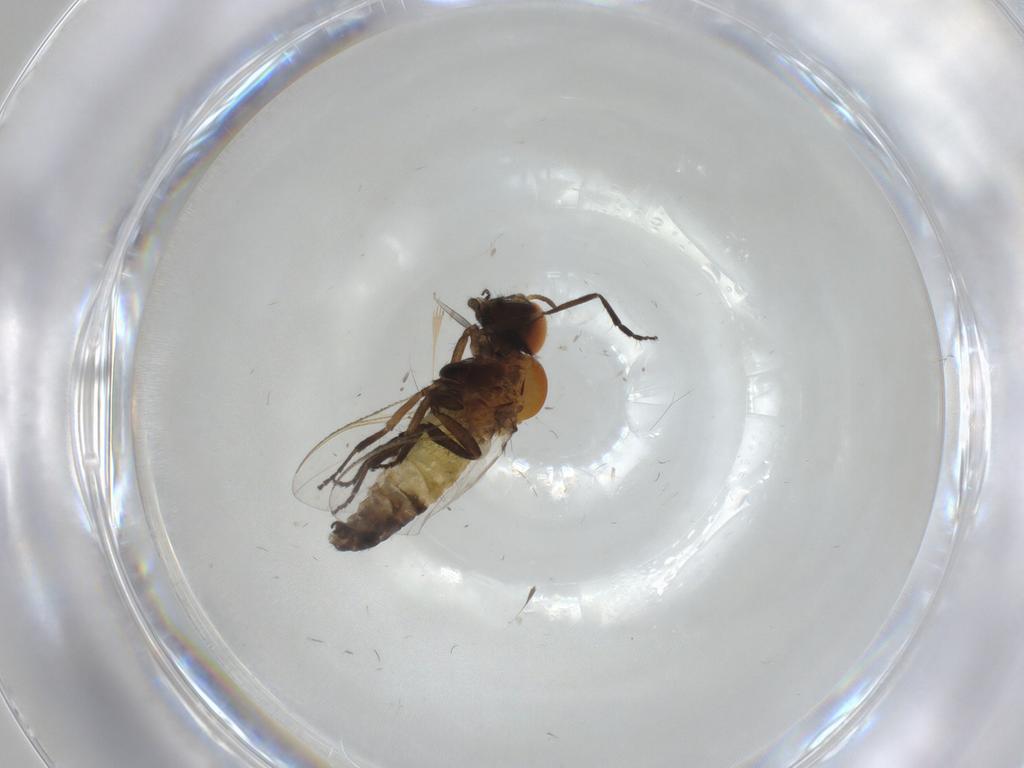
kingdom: Animalia
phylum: Arthropoda
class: Insecta
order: Diptera
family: Simuliidae
